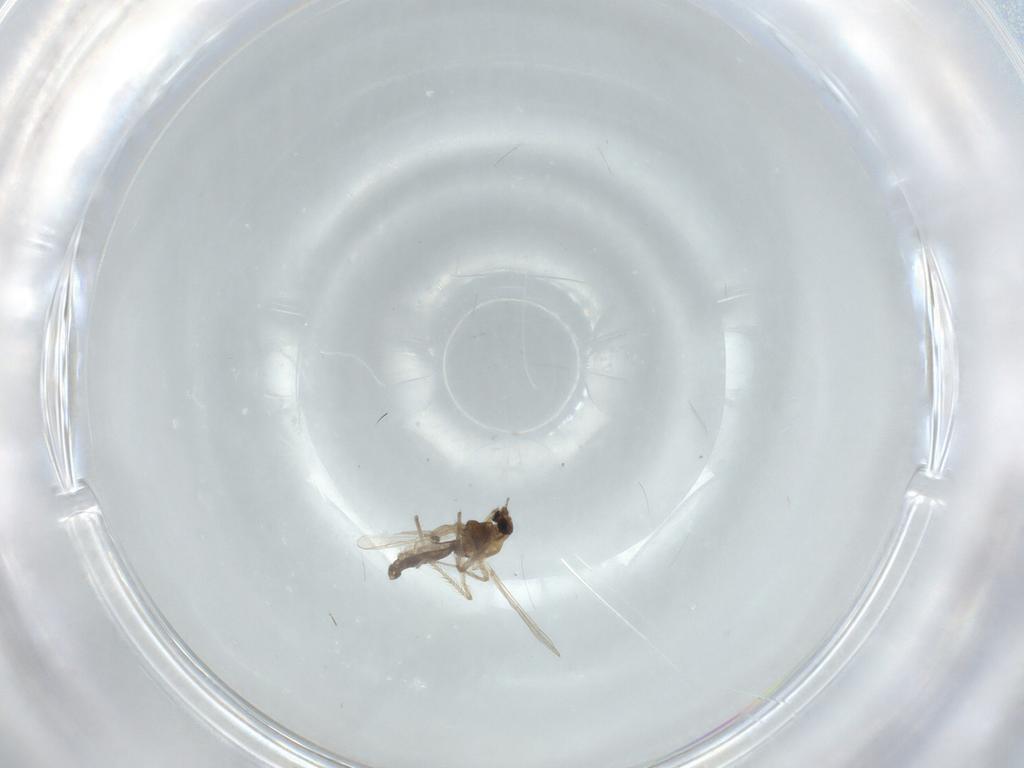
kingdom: Animalia
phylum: Arthropoda
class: Insecta
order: Diptera
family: Chironomidae
